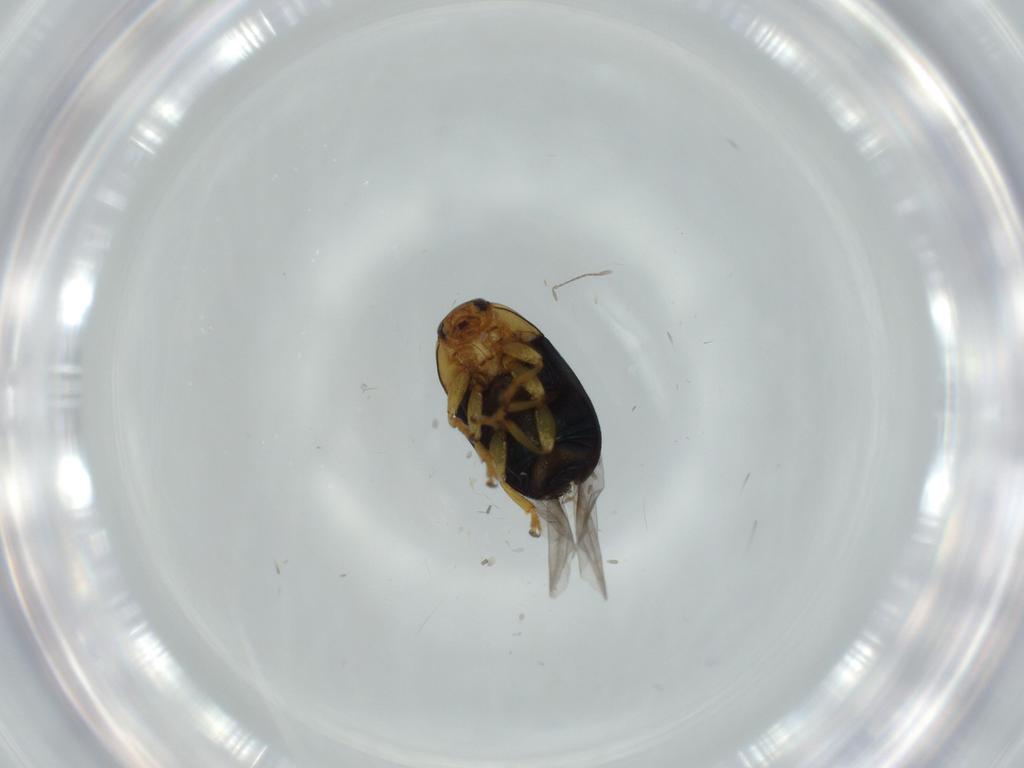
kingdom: Animalia
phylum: Arthropoda
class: Insecta
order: Coleoptera
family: Chrysomelidae
